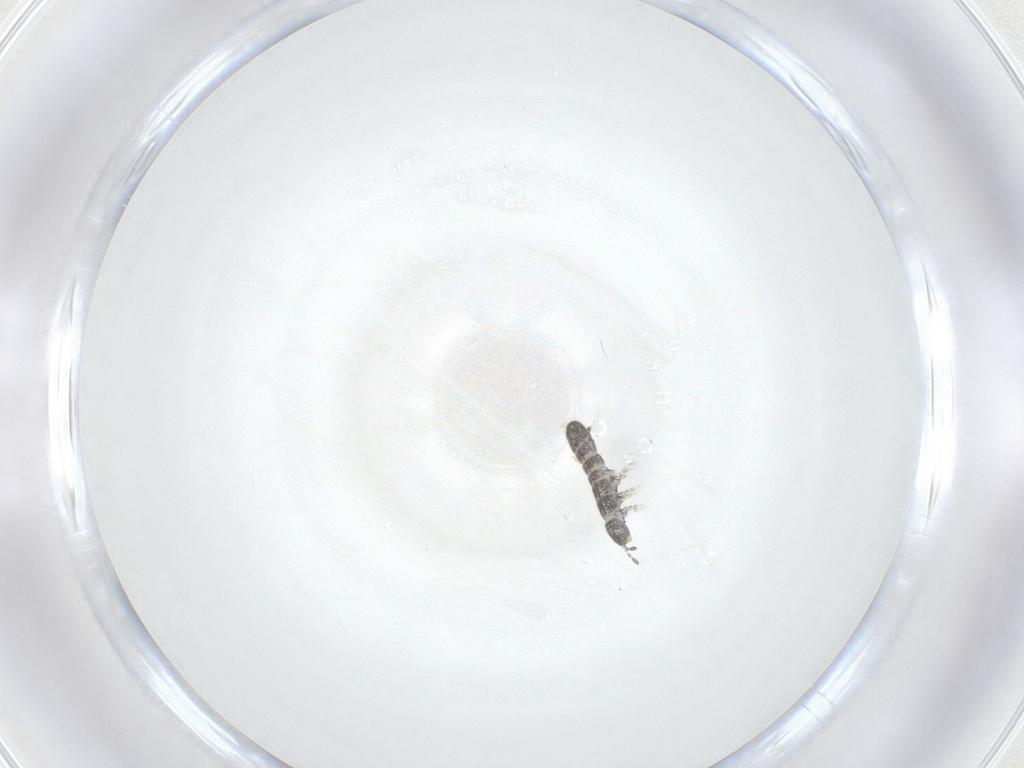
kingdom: Animalia
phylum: Arthropoda
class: Collembola
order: Entomobryomorpha
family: Isotomidae
